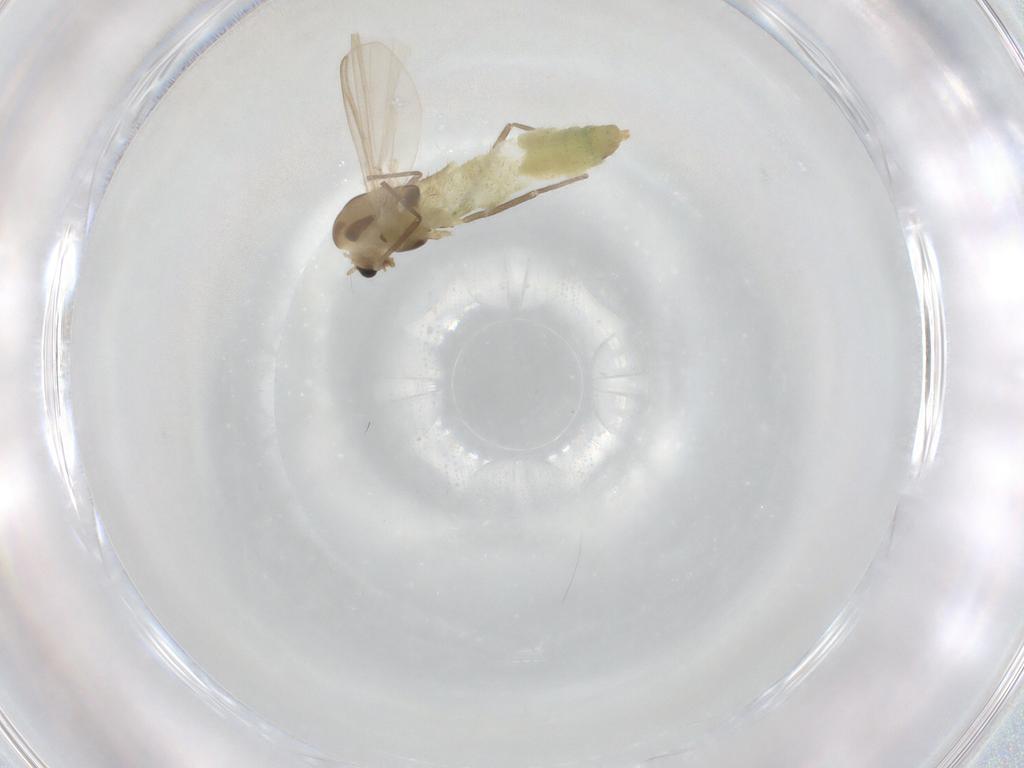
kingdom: Animalia
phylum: Arthropoda
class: Insecta
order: Diptera
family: Chironomidae
